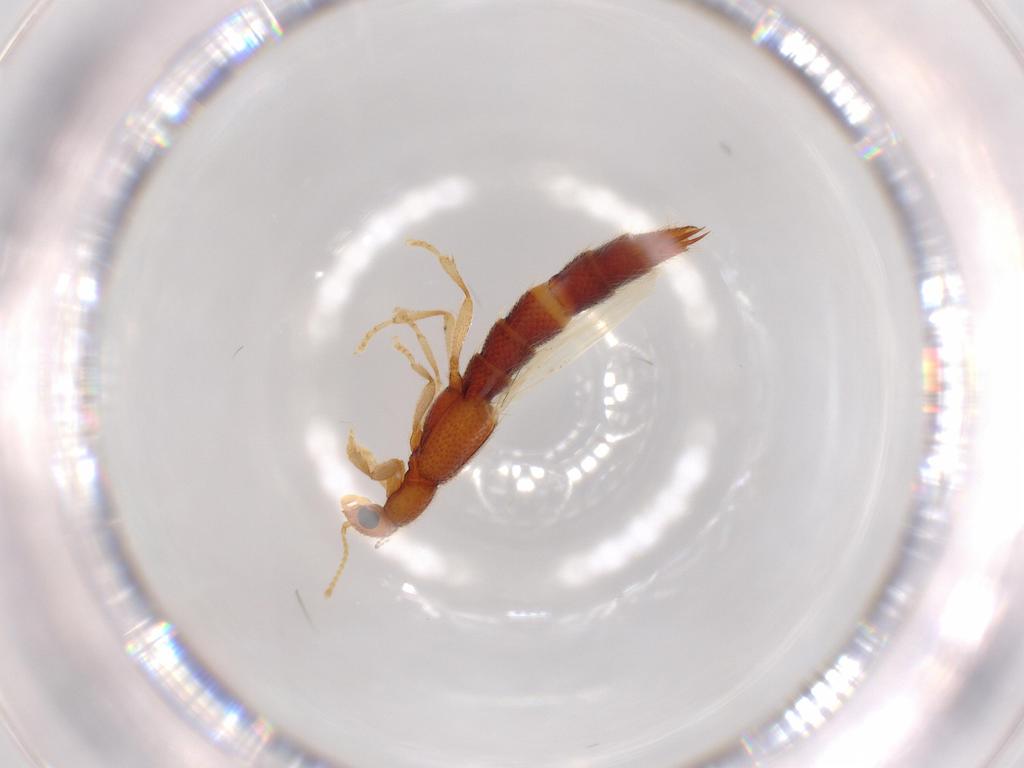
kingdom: Animalia
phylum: Arthropoda
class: Insecta
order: Coleoptera
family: Staphylinidae
